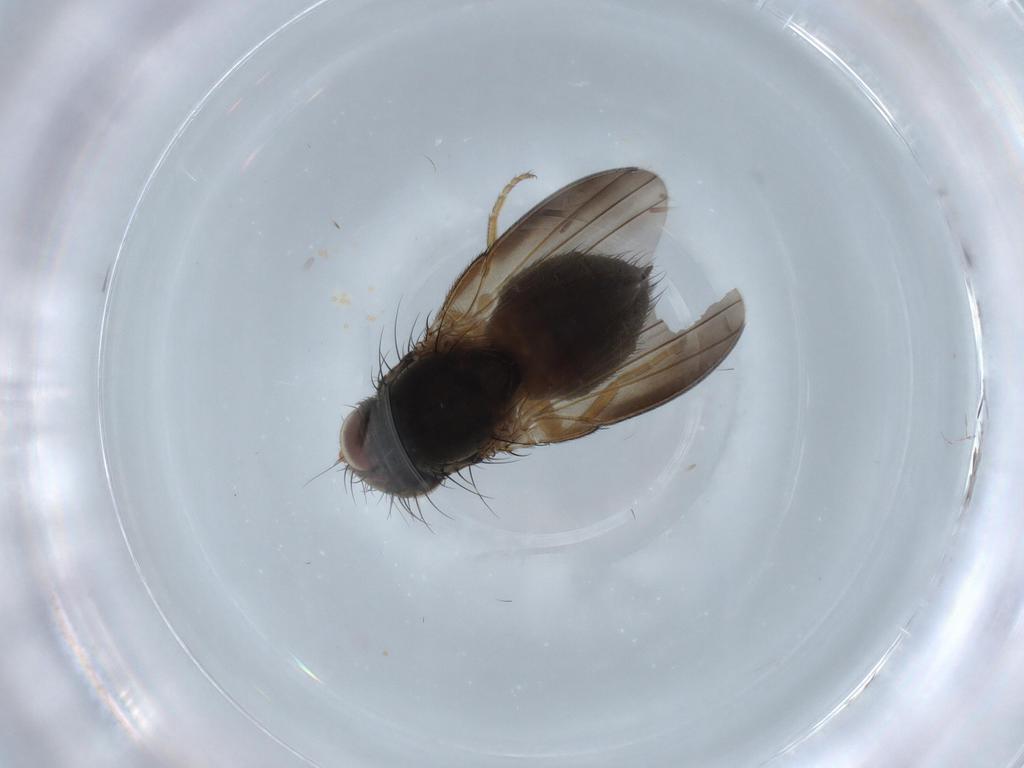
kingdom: Animalia
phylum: Arthropoda
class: Insecta
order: Diptera
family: Milichiidae
